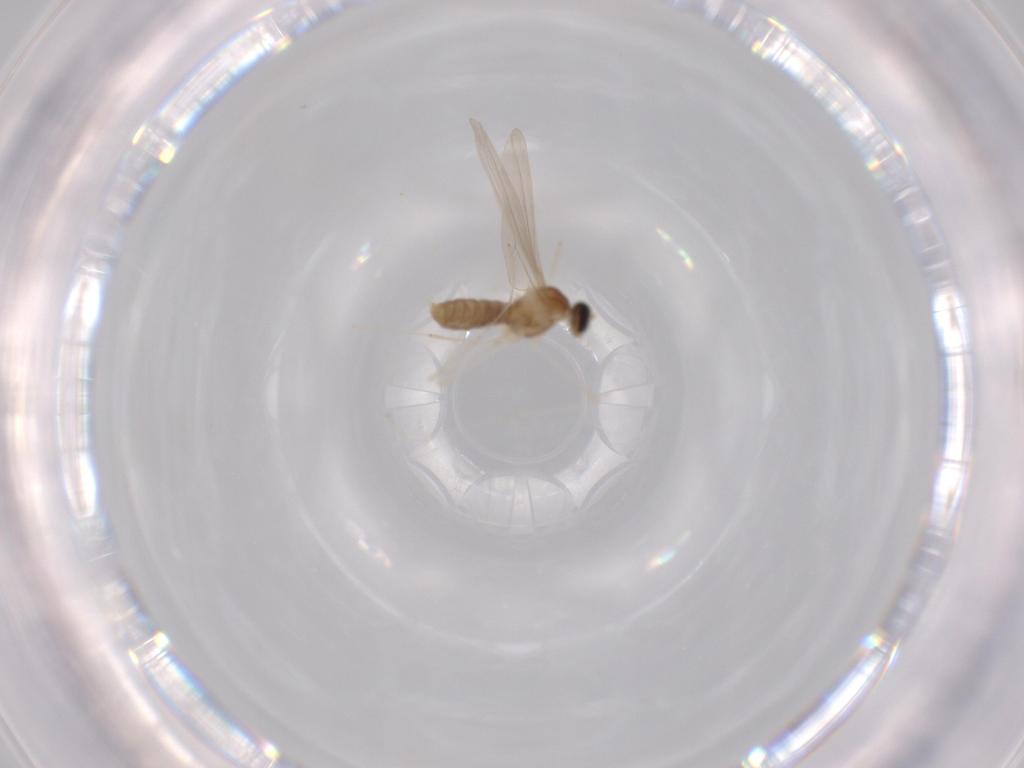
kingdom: Animalia
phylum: Arthropoda
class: Insecta
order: Diptera
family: Cecidomyiidae
